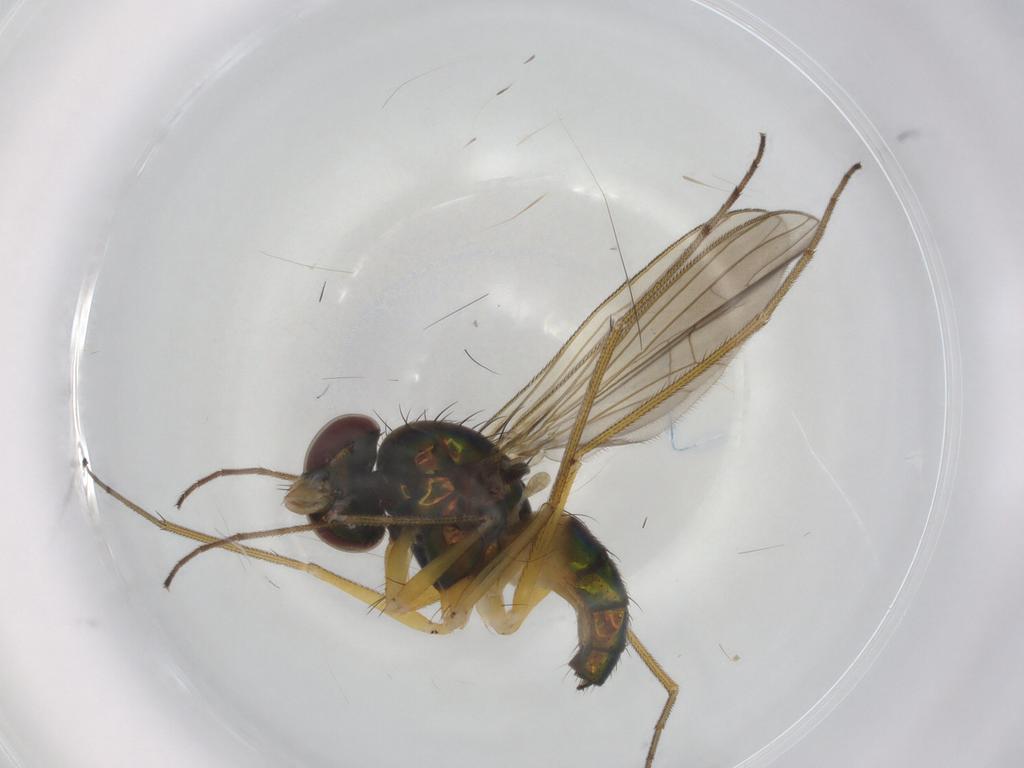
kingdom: Animalia
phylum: Arthropoda
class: Insecta
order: Diptera
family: Dolichopodidae
